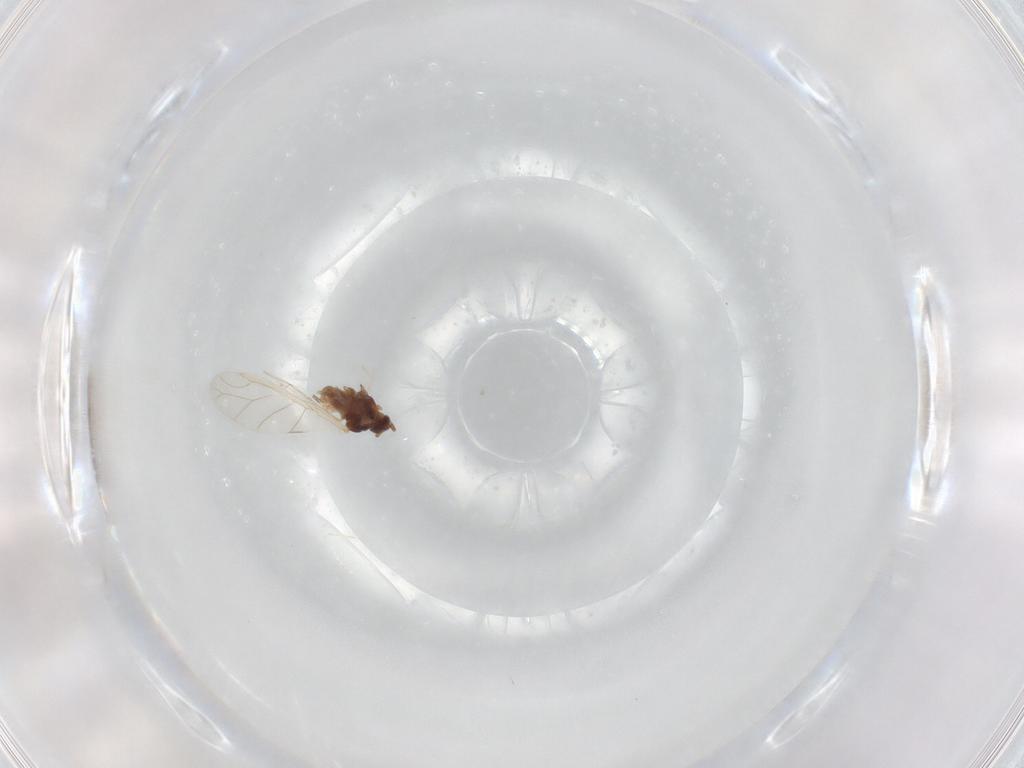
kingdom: Animalia
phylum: Arthropoda
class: Insecta
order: Hemiptera
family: Aphididae
